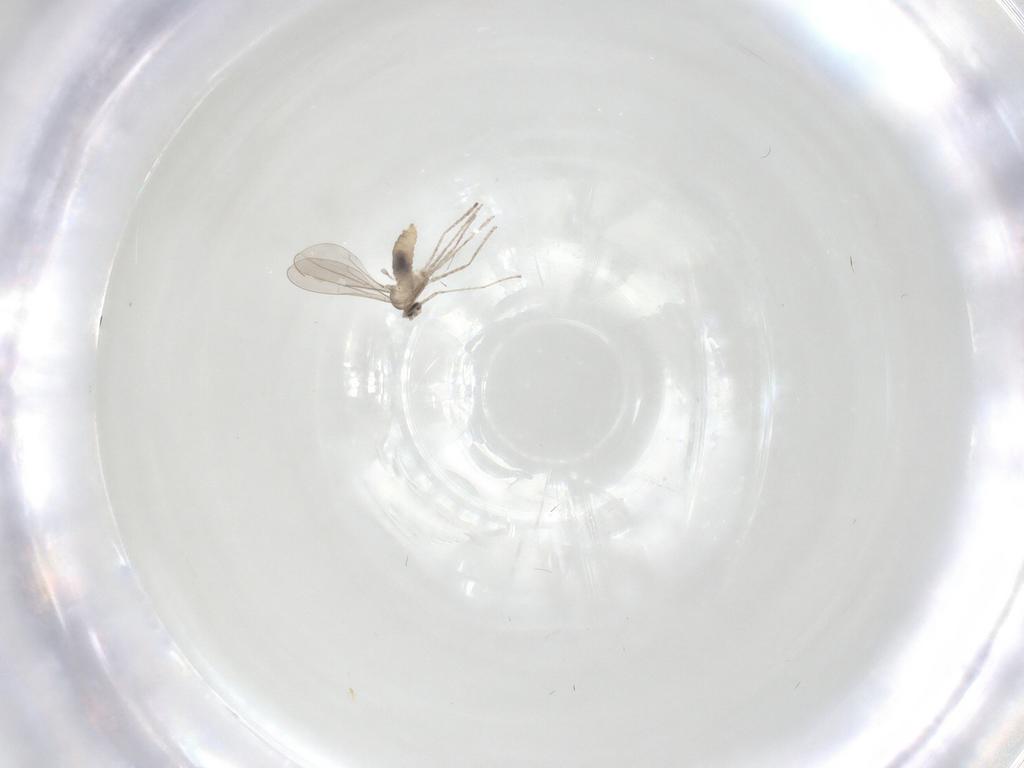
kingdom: Animalia
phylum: Arthropoda
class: Insecta
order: Diptera
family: Cecidomyiidae
